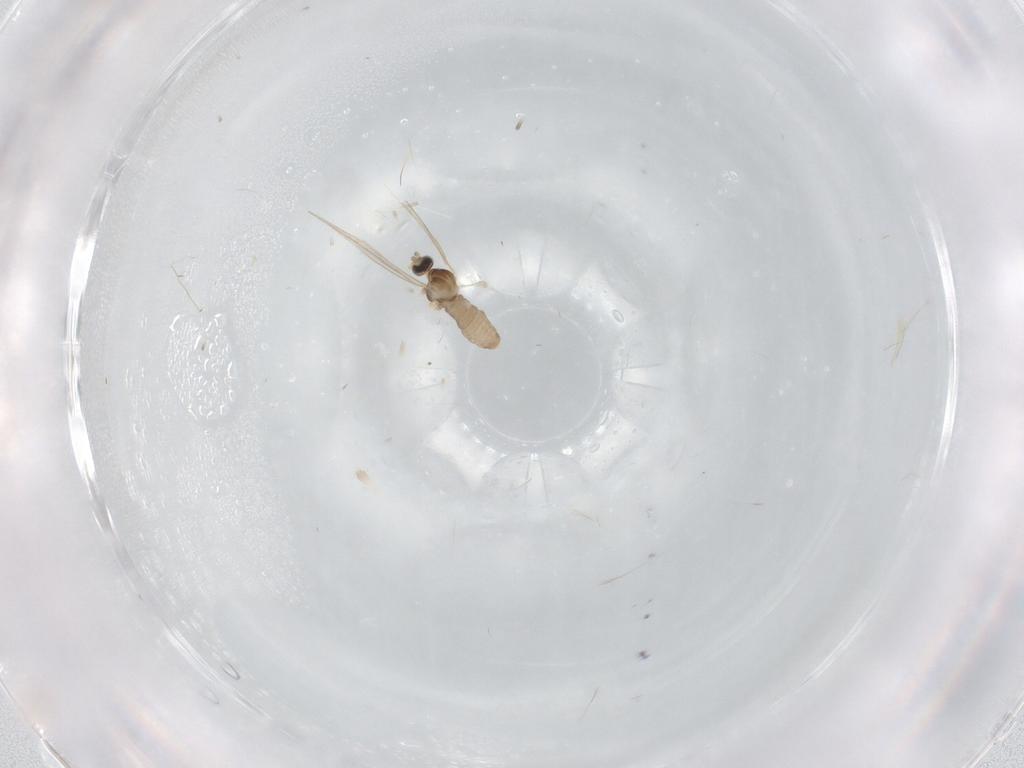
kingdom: Animalia
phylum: Arthropoda
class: Insecta
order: Diptera
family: Cecidomyiidae
